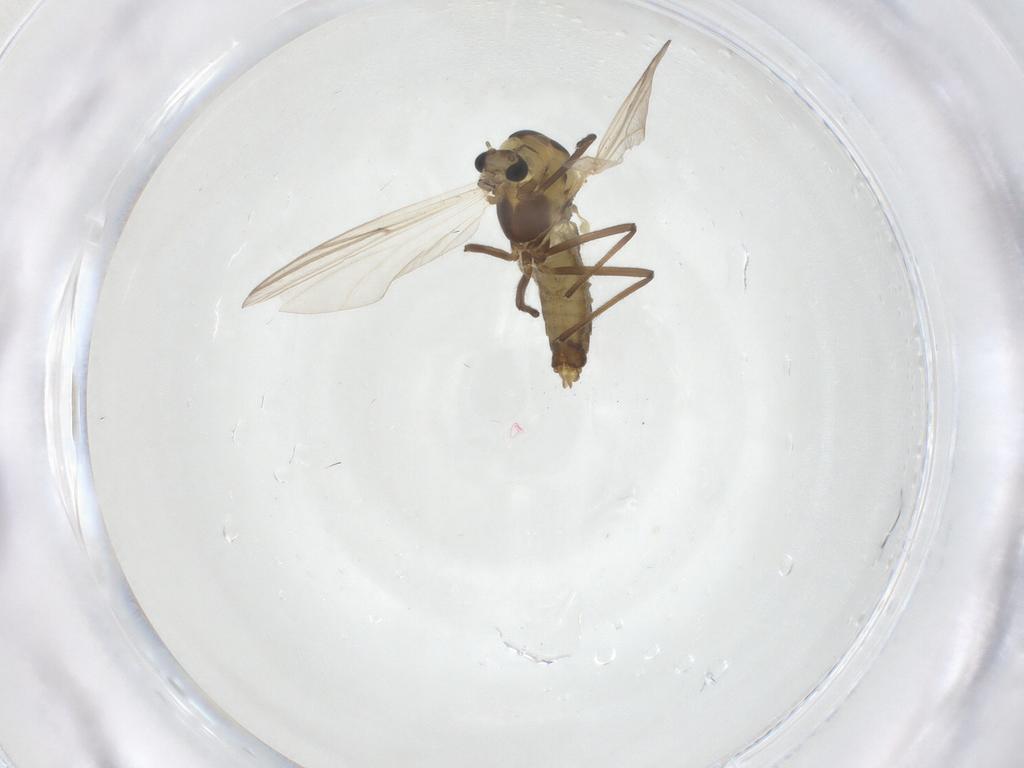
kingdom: Animalia
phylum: Arthropoda
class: Insecta
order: Diptera
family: Chironomidae
